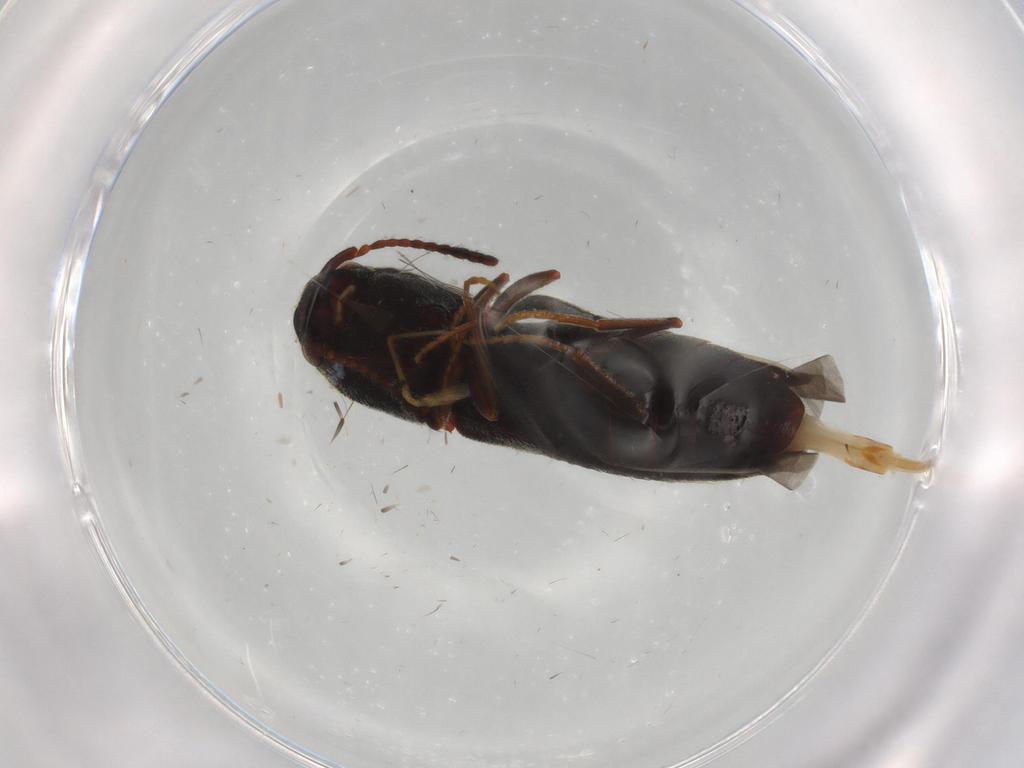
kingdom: Animalia
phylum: Arthropoda
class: Insecta
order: Coleoptera
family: Eucnemidae
